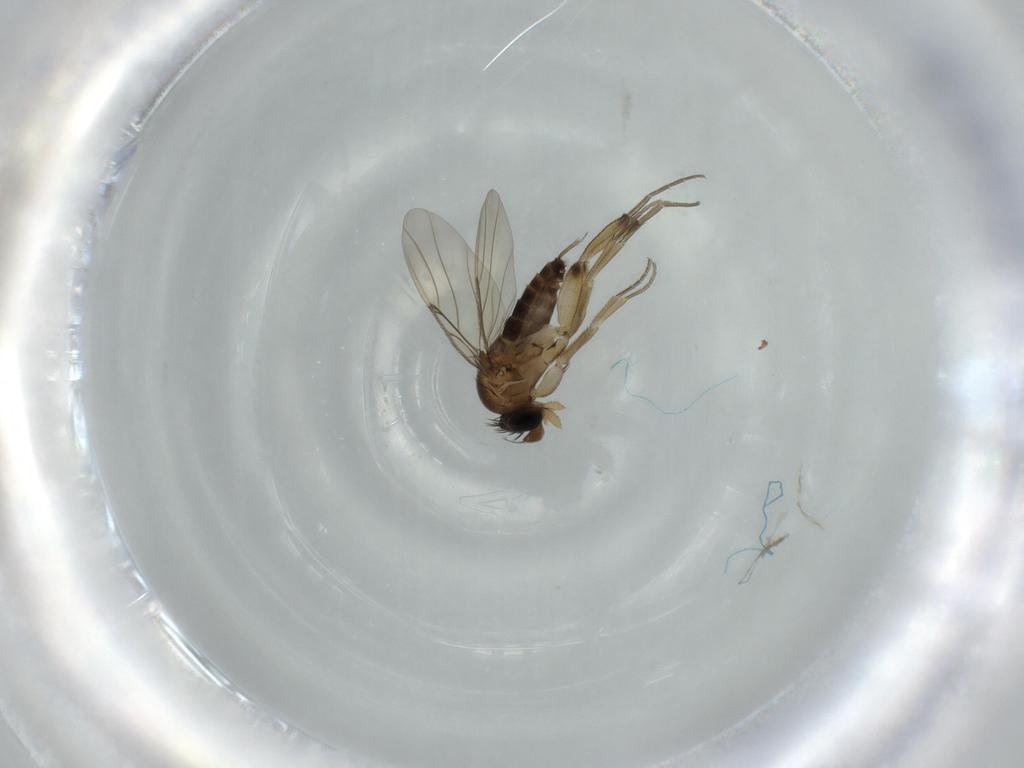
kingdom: Animalia
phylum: Arthropoda
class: Insecta
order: Diptera
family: Phoridae
